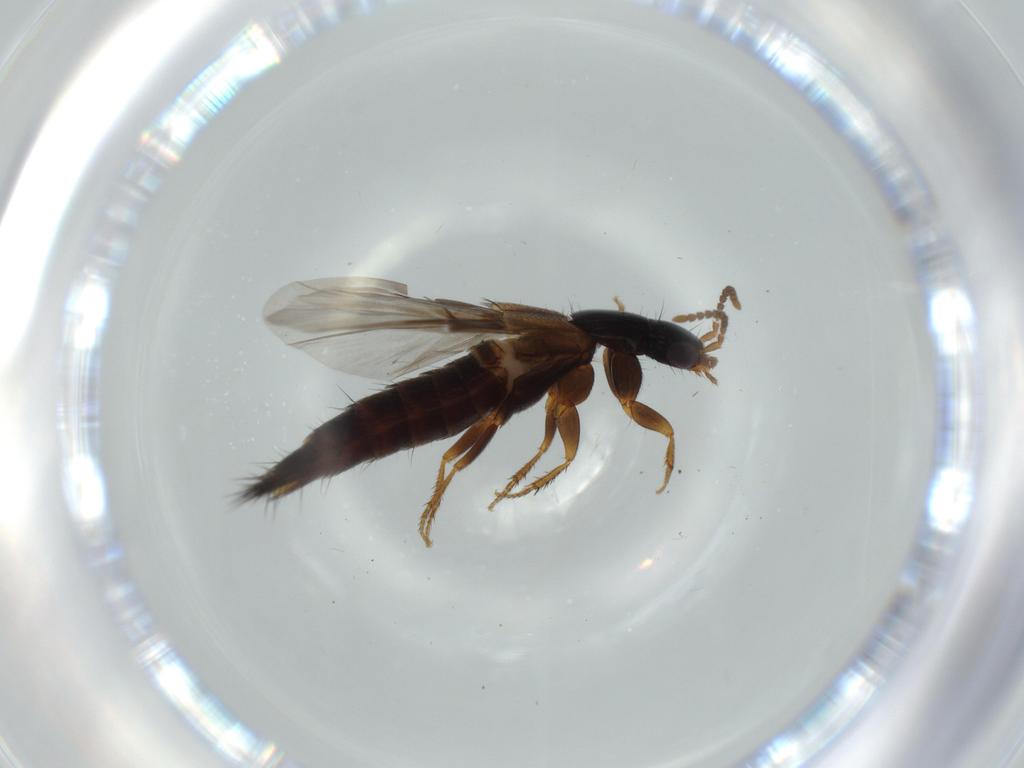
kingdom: Animalia
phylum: Arthropoda
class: Insecta
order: Coleoptera
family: Staphylinidae
